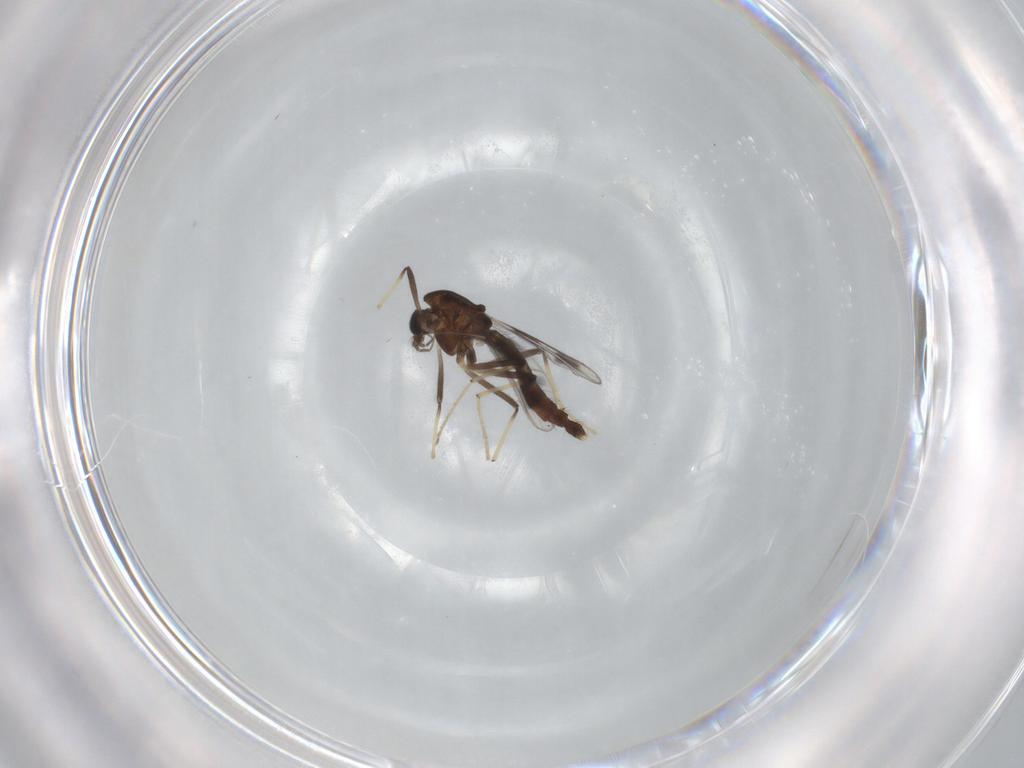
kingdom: Animalia
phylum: Arthropoda
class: Insecta
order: Diptera
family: Chironomidae
